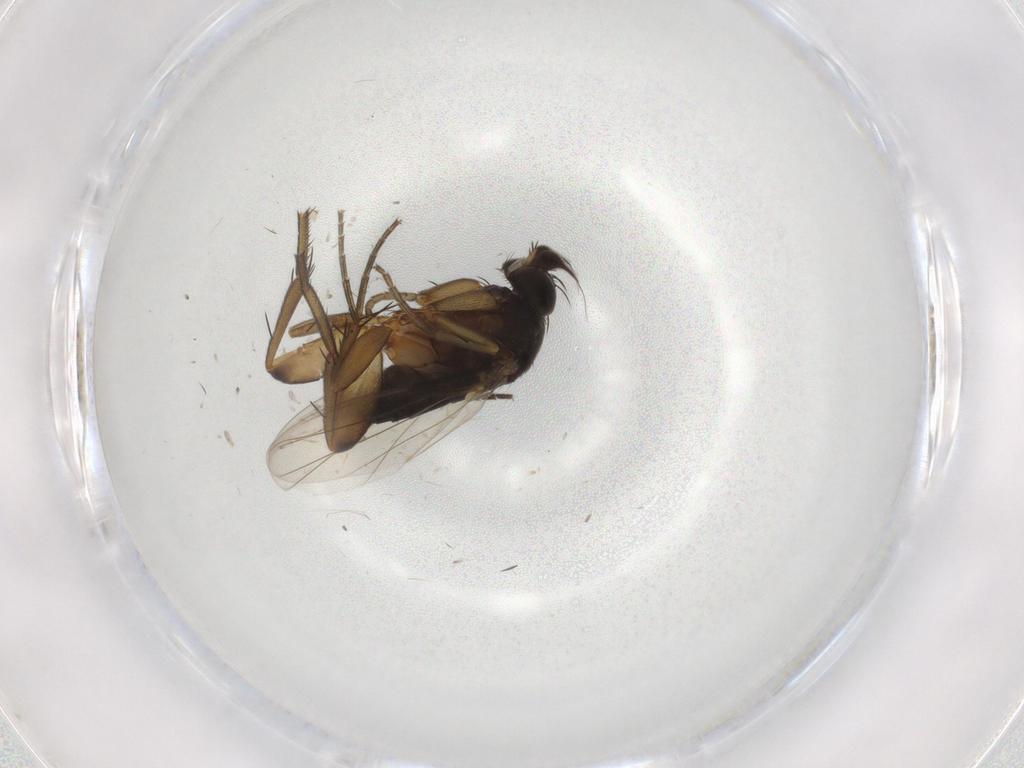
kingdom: Animalia
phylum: Arthropoda
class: Insecta
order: Diptera
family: Phoridae
